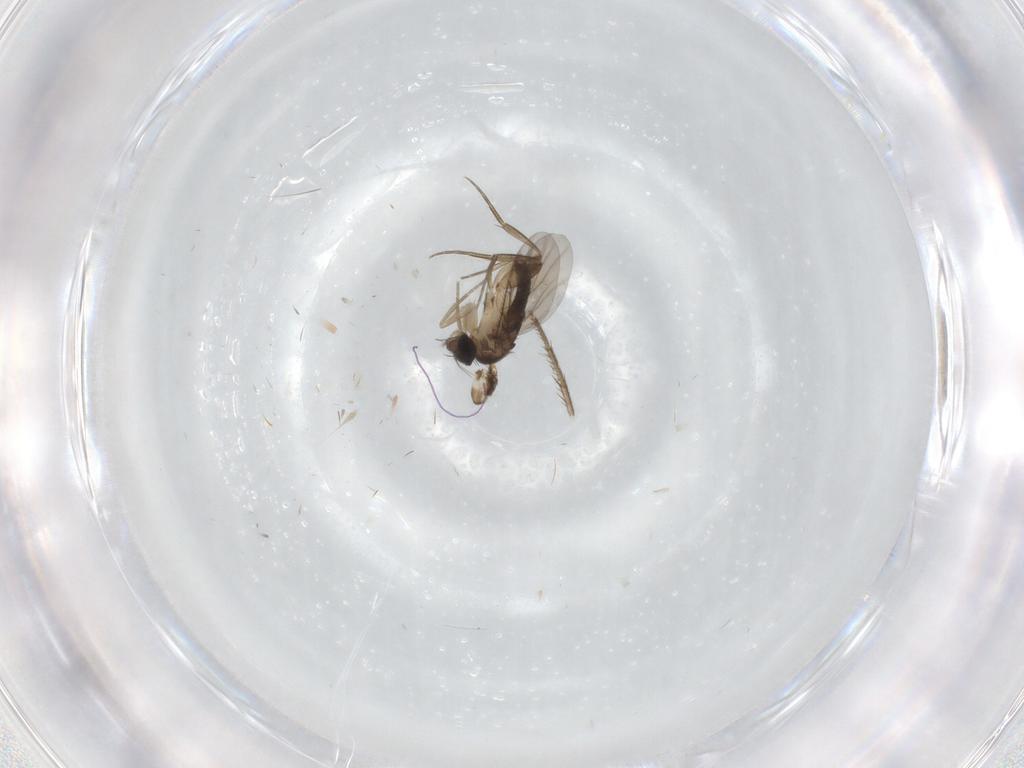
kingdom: Animalia
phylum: Arthropoda
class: Insecta
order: Diptera
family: Phoridae
